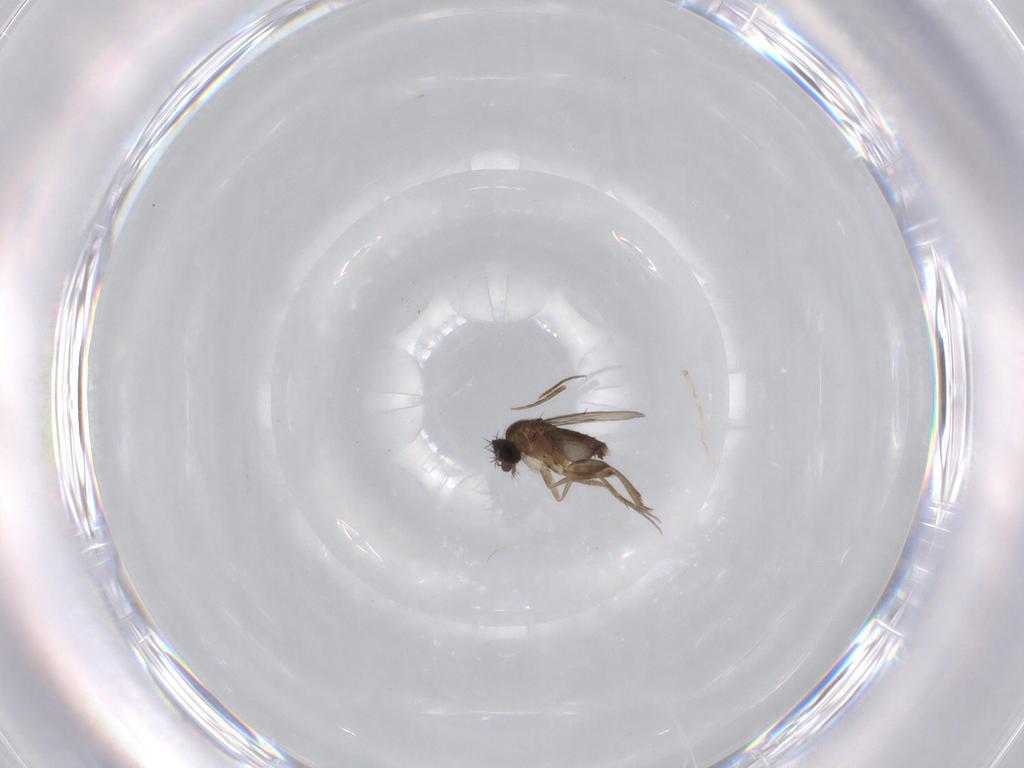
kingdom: Animalia
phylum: Arthropoda
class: Insecta
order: Diptera
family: Phoridae
